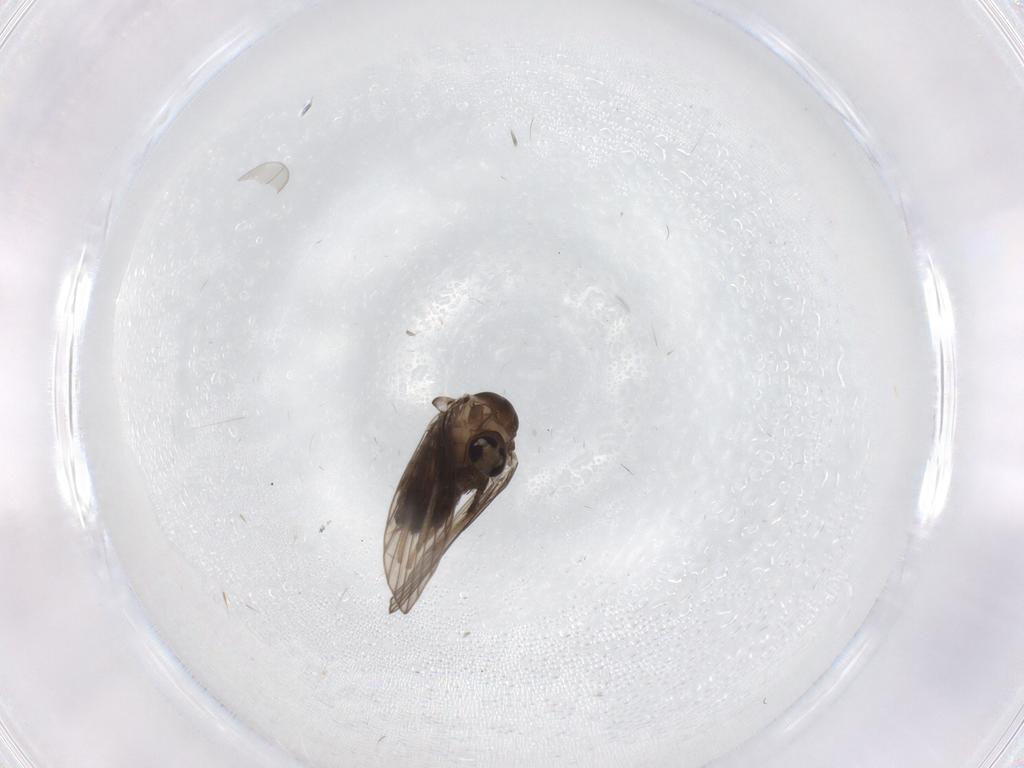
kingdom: Animalia
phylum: Arthropoda
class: Insecta
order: Diptera
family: Psychodidae
